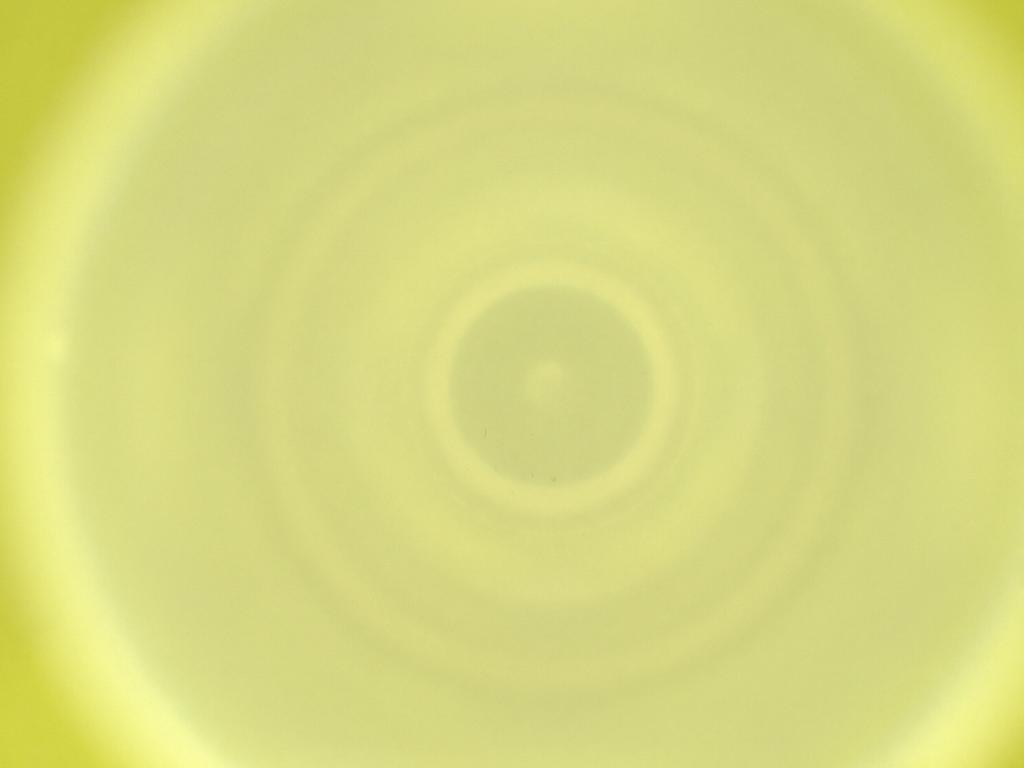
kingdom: Animalia
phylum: Arthropoda
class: Insecta
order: Diptera
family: Cecidomyiidae
